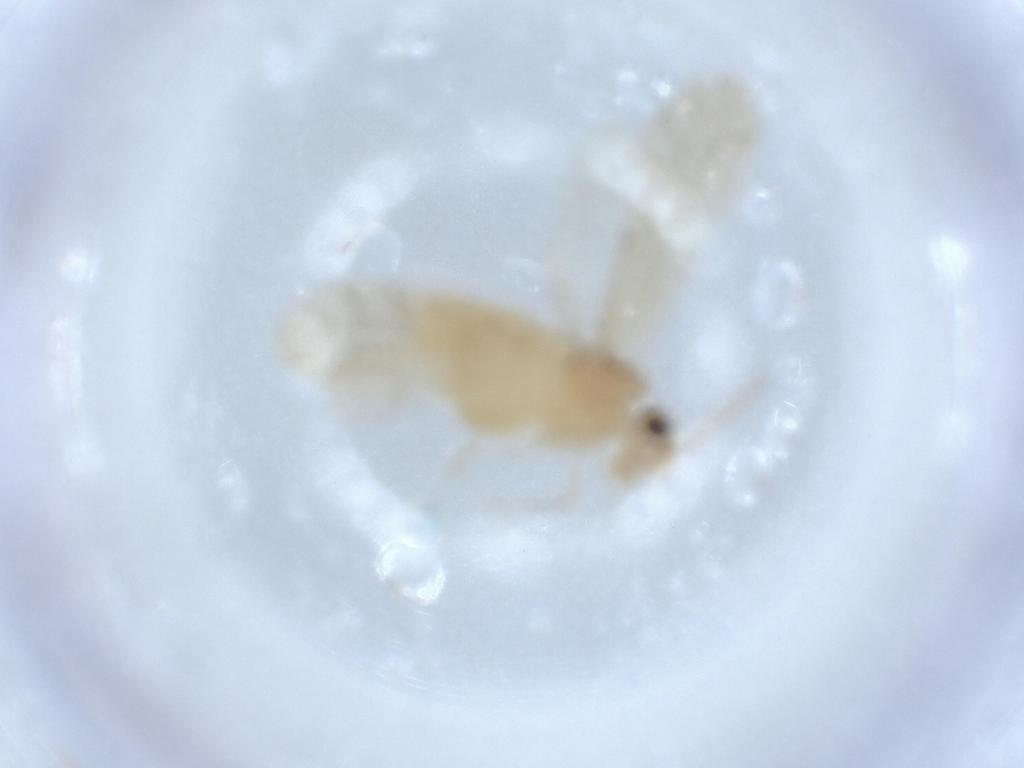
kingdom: Animalia
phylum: Arthropoda
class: Insecta
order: Psocodea
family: Caeciliusidae
